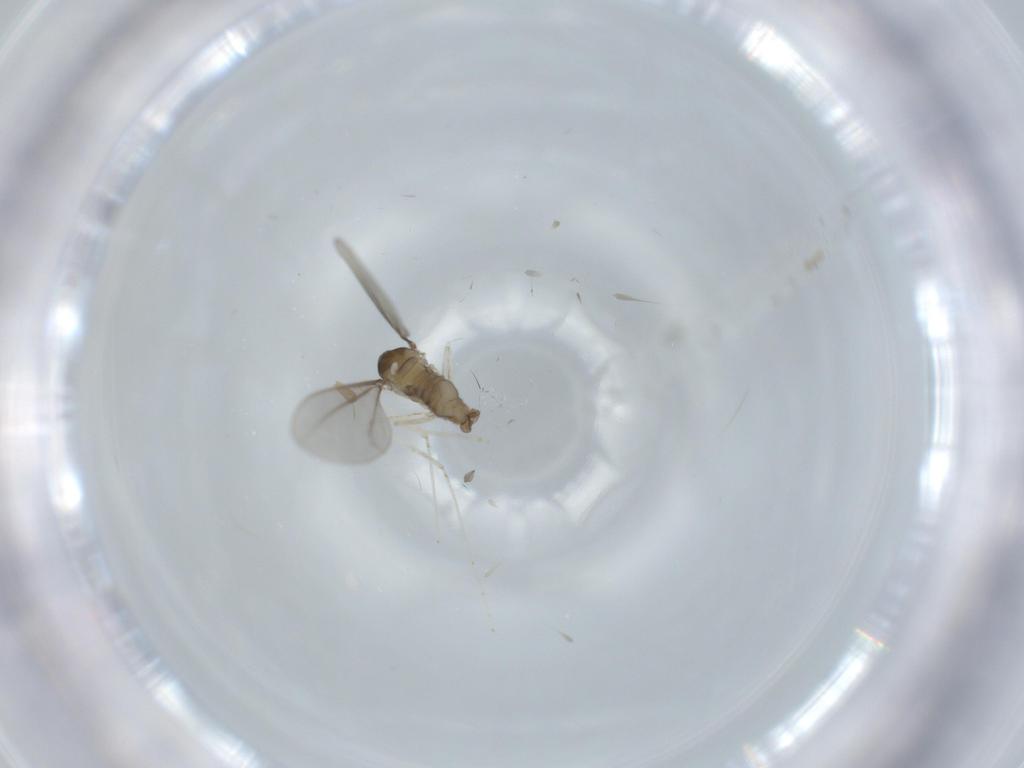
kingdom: Animalia
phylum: Arthropoda
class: Insecta
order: Diptera
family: Cecidomyiidae
